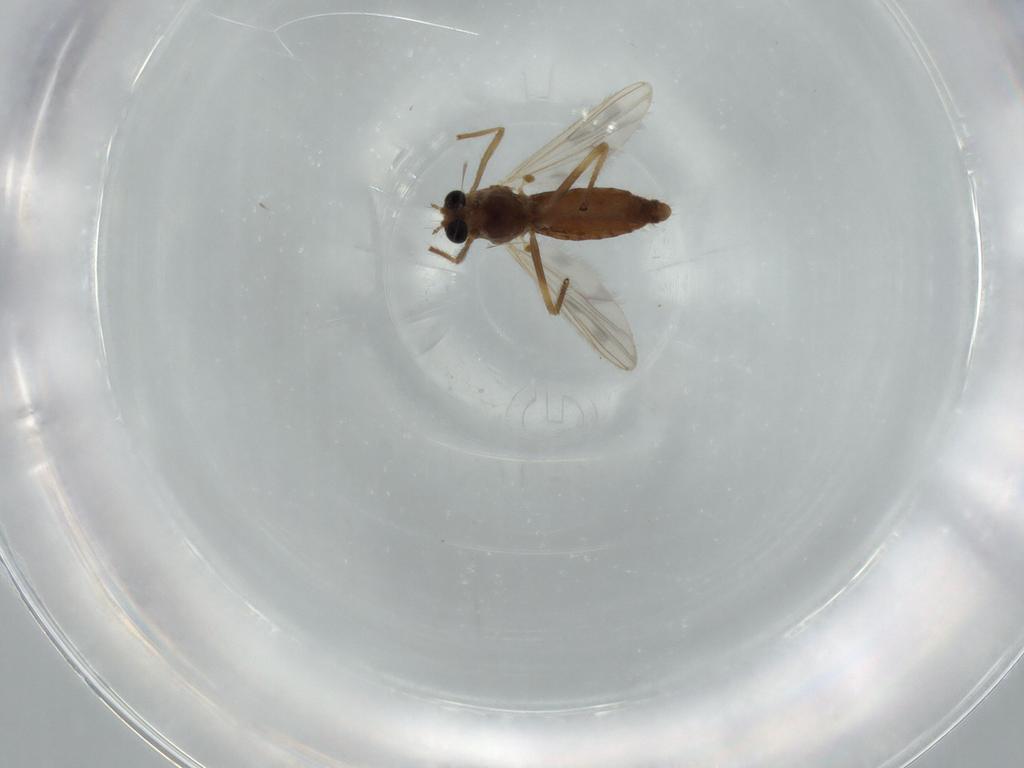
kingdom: Animalia
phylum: Arthropoda
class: Insecta
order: Diptera
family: Chironomidae
